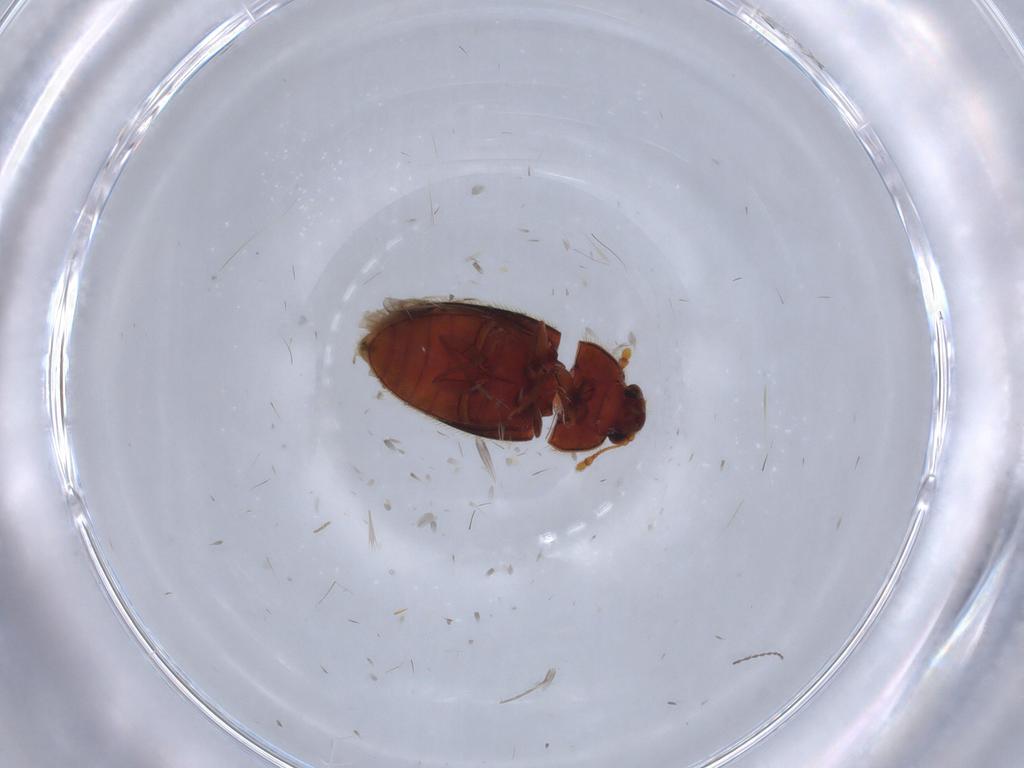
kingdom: Animalia
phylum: Arthropoda
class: Insecta
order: Coleoptera
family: Biphyllidae
